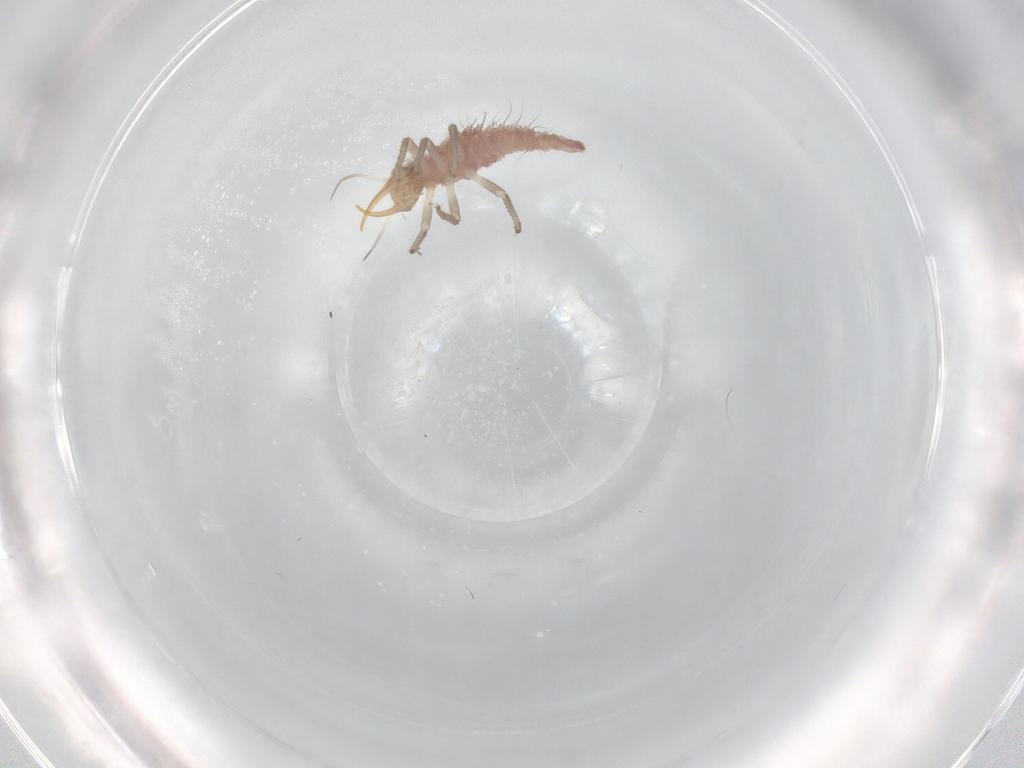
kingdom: Animalia
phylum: Arthropoda
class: Insecta
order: Neuroptera
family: Chrysopidae
